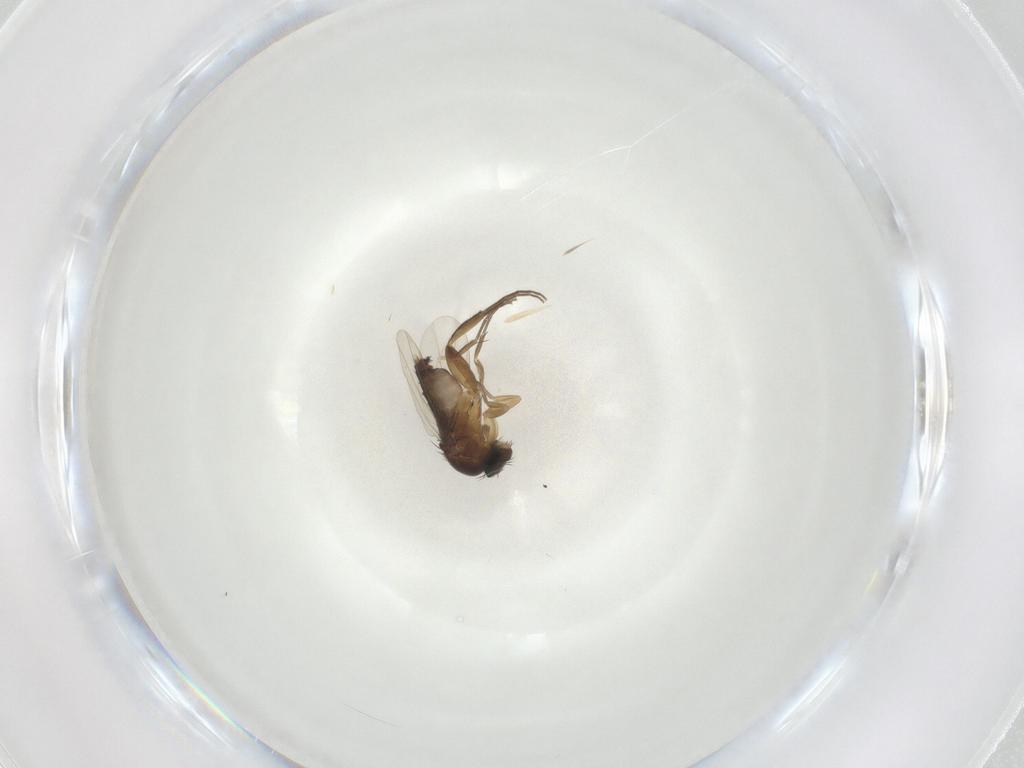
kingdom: Animalia
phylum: Arthropoda
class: Insecta
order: Diptera
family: Phoridae
